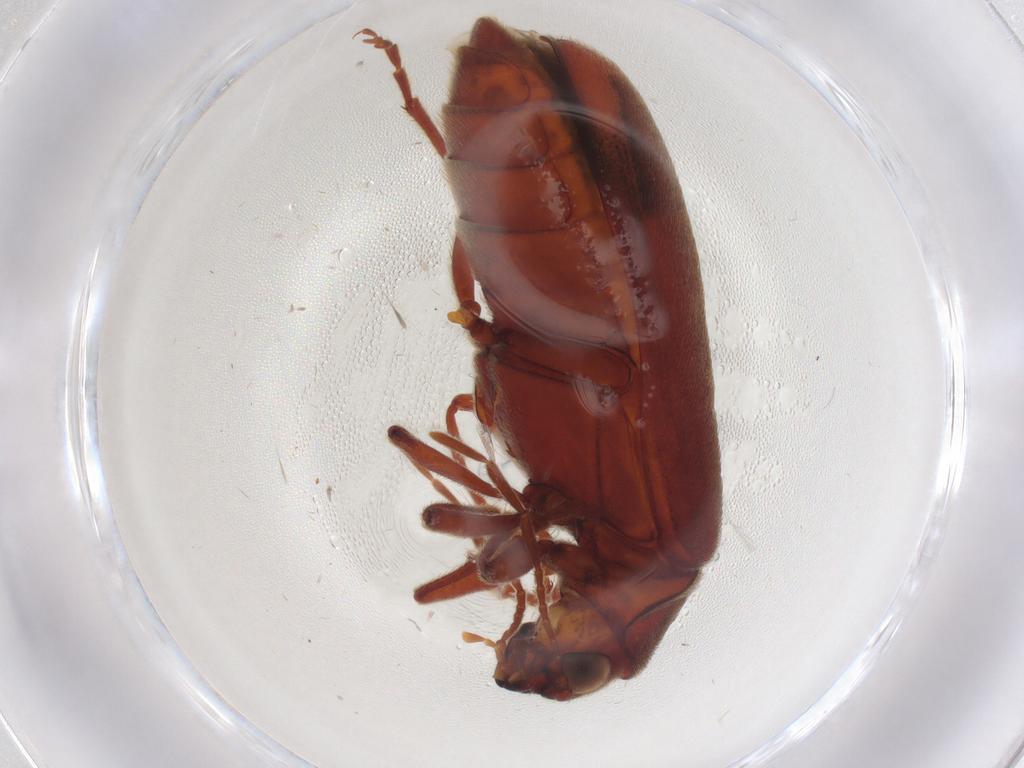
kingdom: Animalia
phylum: Arthropoda
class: Insecta
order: Coleoptera
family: Ptinidae
